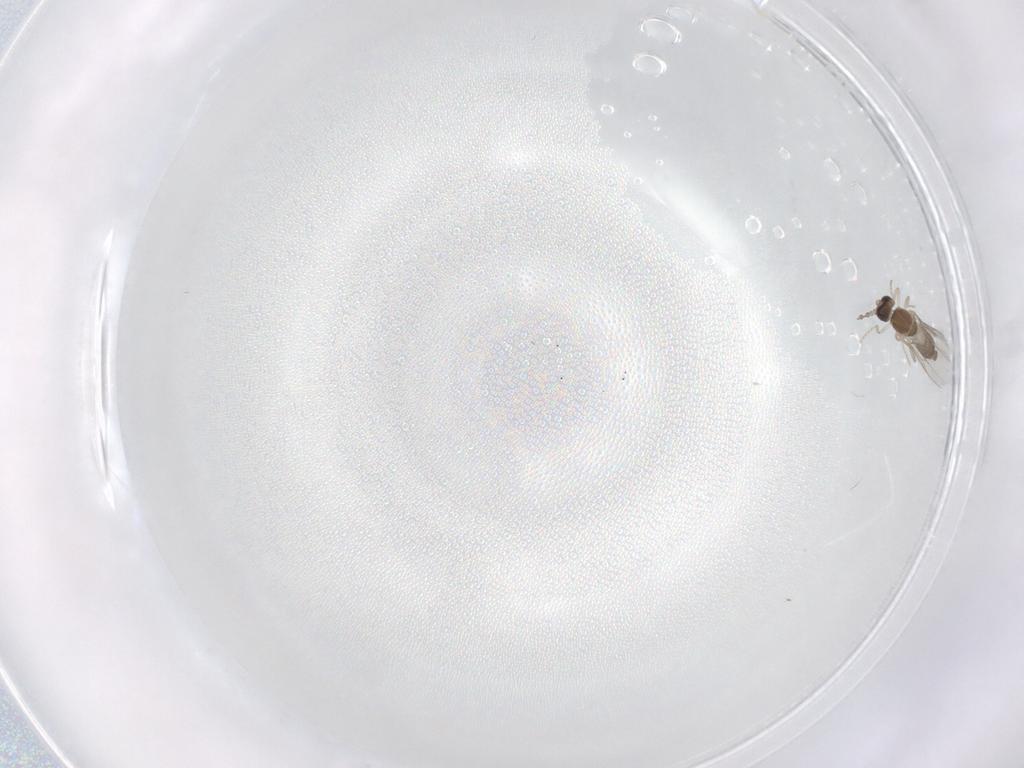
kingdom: Animalia
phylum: Arthropoda
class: Insecta
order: Diptera
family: Cecidomyiidae
